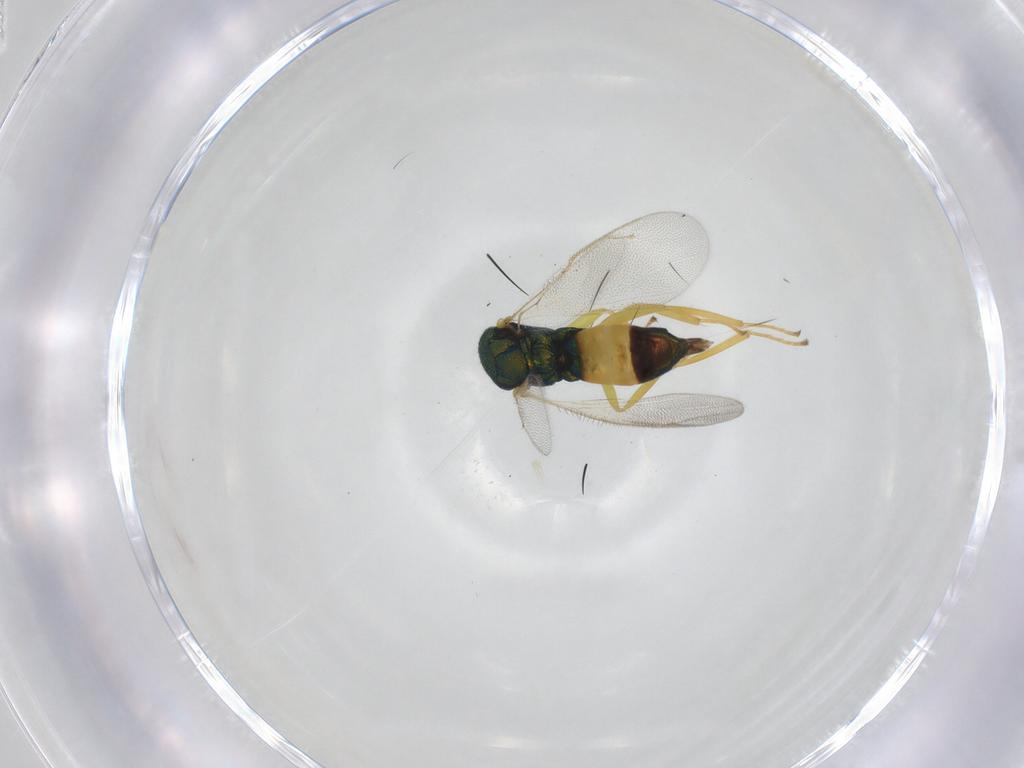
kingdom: Animalia
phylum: Arthropoda
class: Insecta
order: Hymenoptera
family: Pteromalidae
